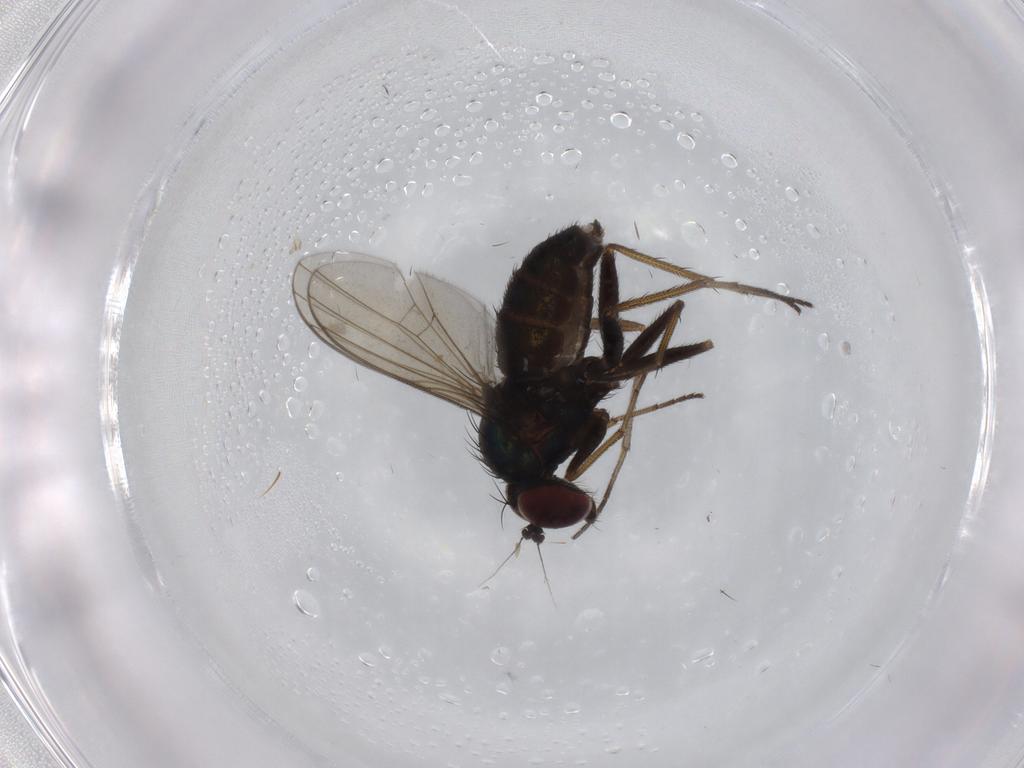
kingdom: Animalia
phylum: Arthropoda
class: Insecta
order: Diptera
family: Dolichopodidae
